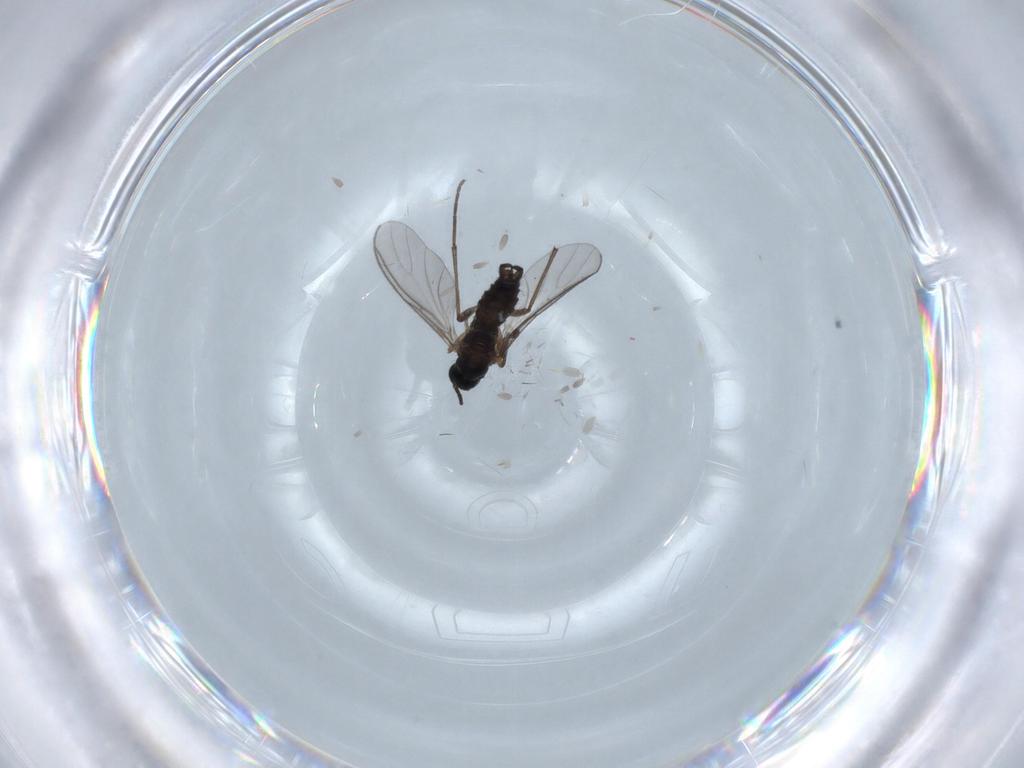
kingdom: Animalia
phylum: Arthropoda
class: Insecta
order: Diptera
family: Sciaridae
